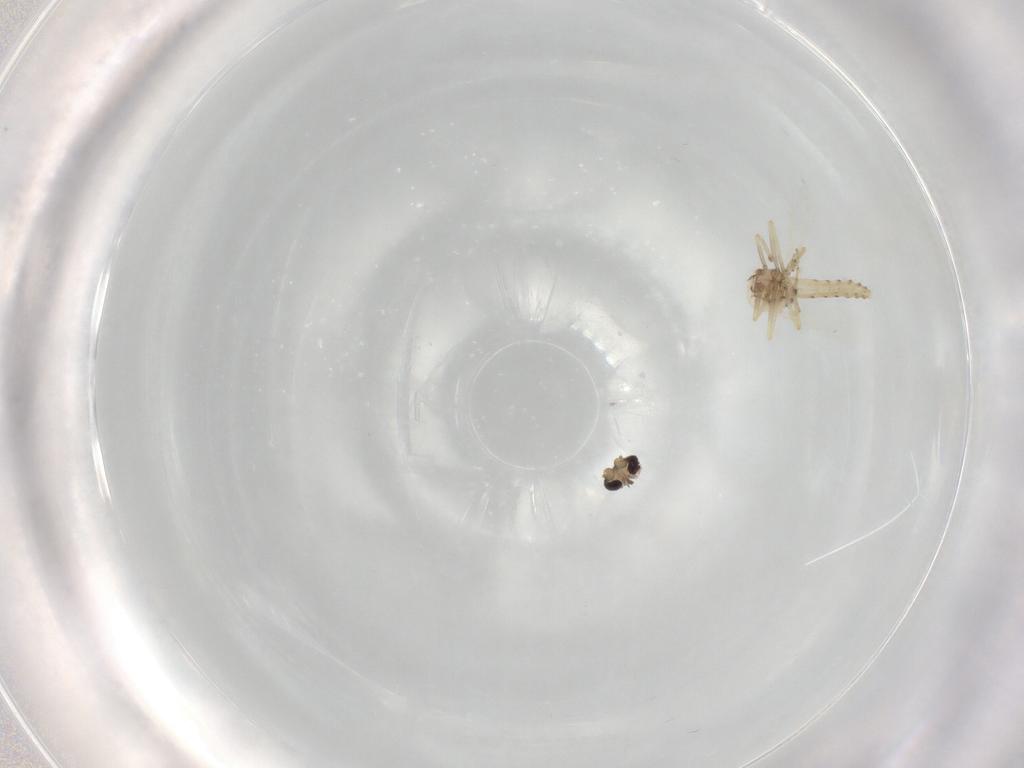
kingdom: Animalia
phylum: Arthropoda
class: Insecta
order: Diptera
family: Ceratopogonidae
